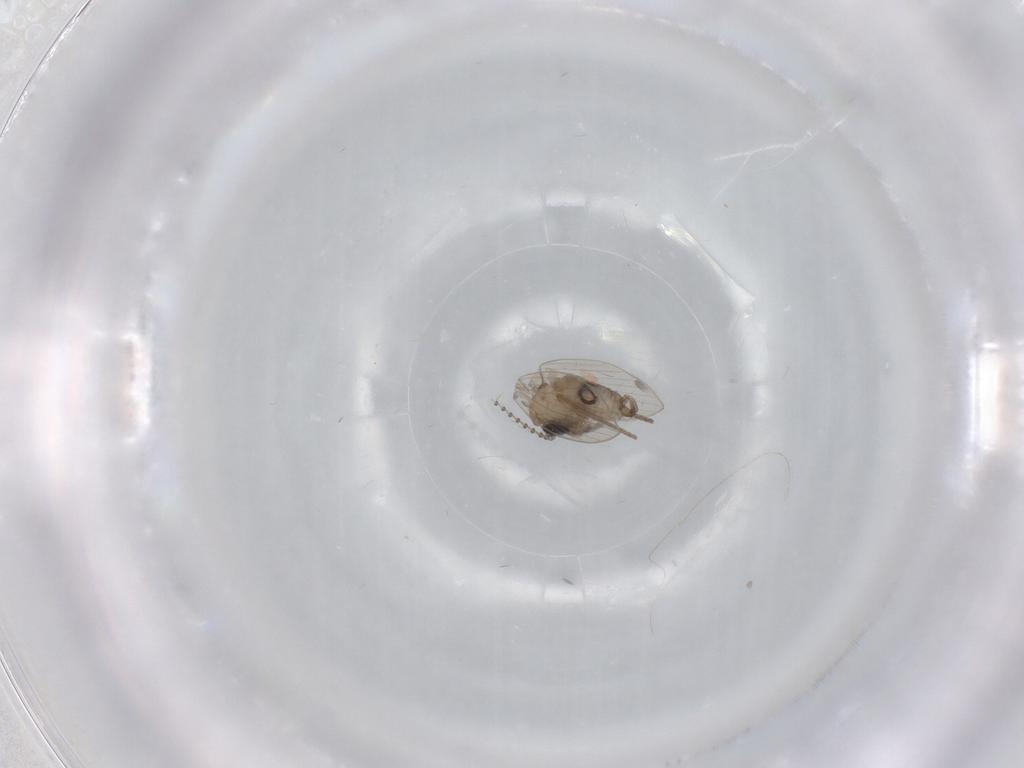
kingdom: Animalia
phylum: Arthropoda
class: Insecta
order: Diptera
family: Psychodidae
